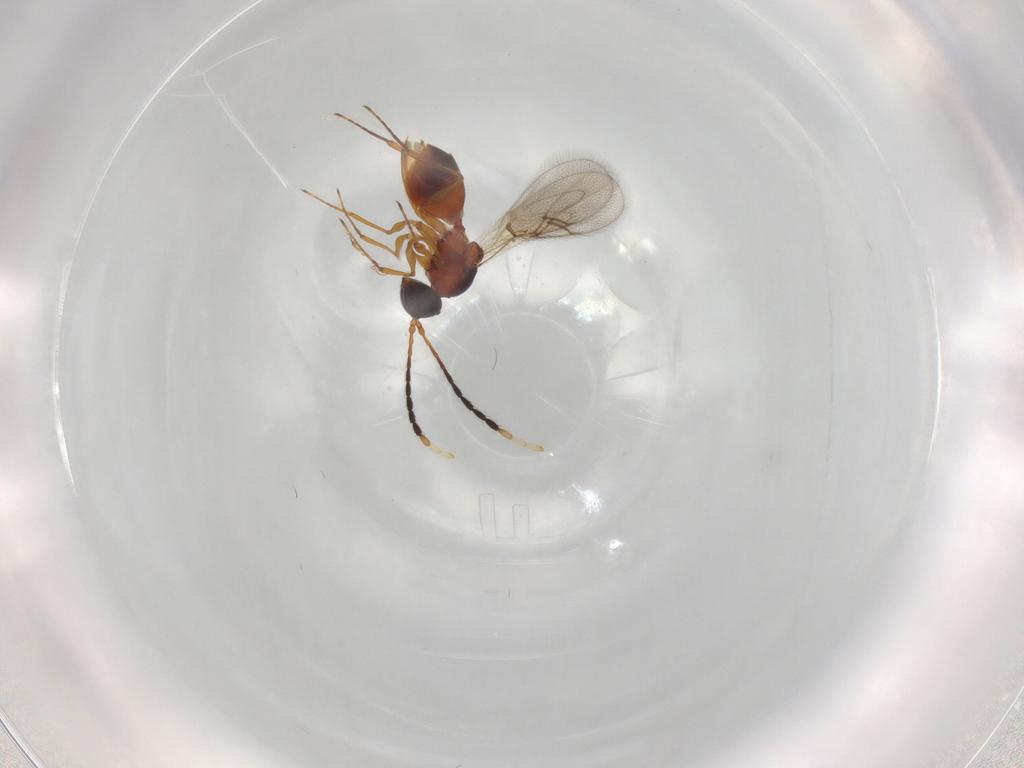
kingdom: Animalia
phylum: Arthropoda
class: Insecta
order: Hymenoptera
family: Figitidae
